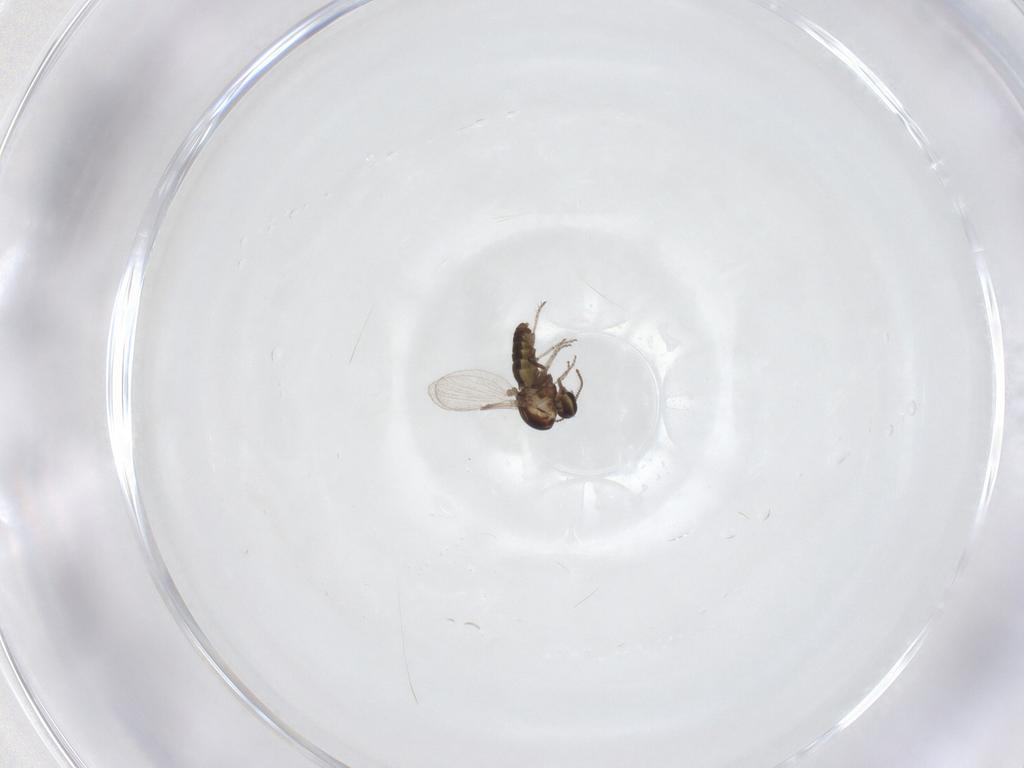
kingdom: Animalia
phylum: Arthropoda
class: Insecta
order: Diptera
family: Ceratopogonidae
